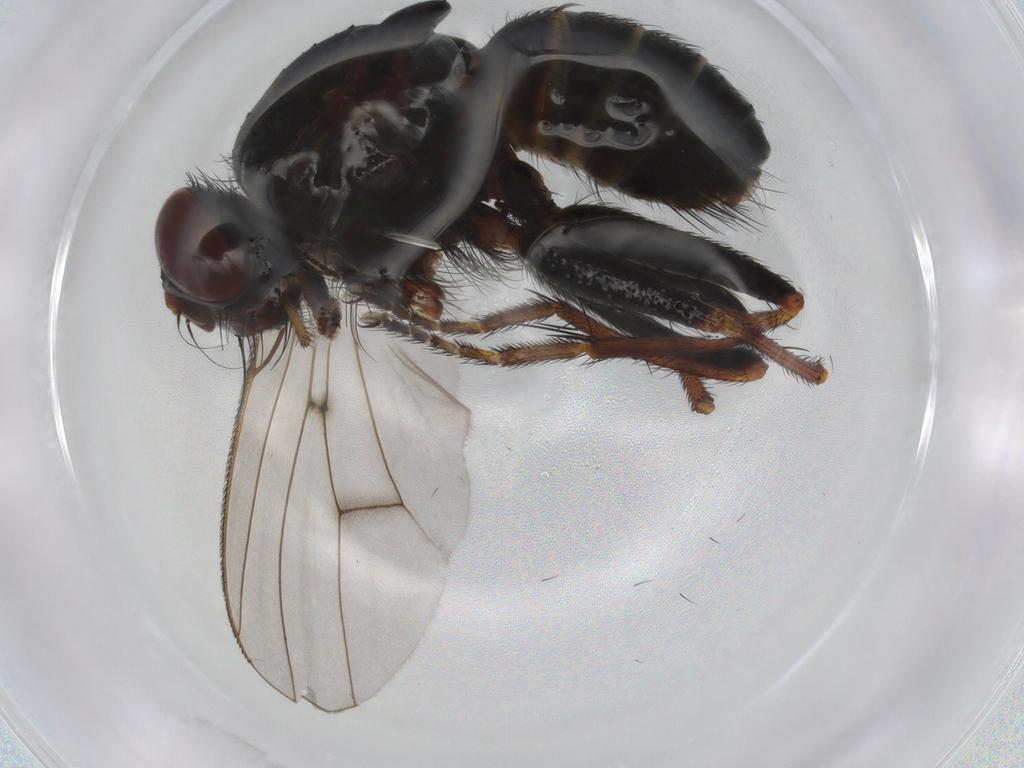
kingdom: Animalia
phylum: Arthropoda
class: Insecta
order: Diptera
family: Muscidae
